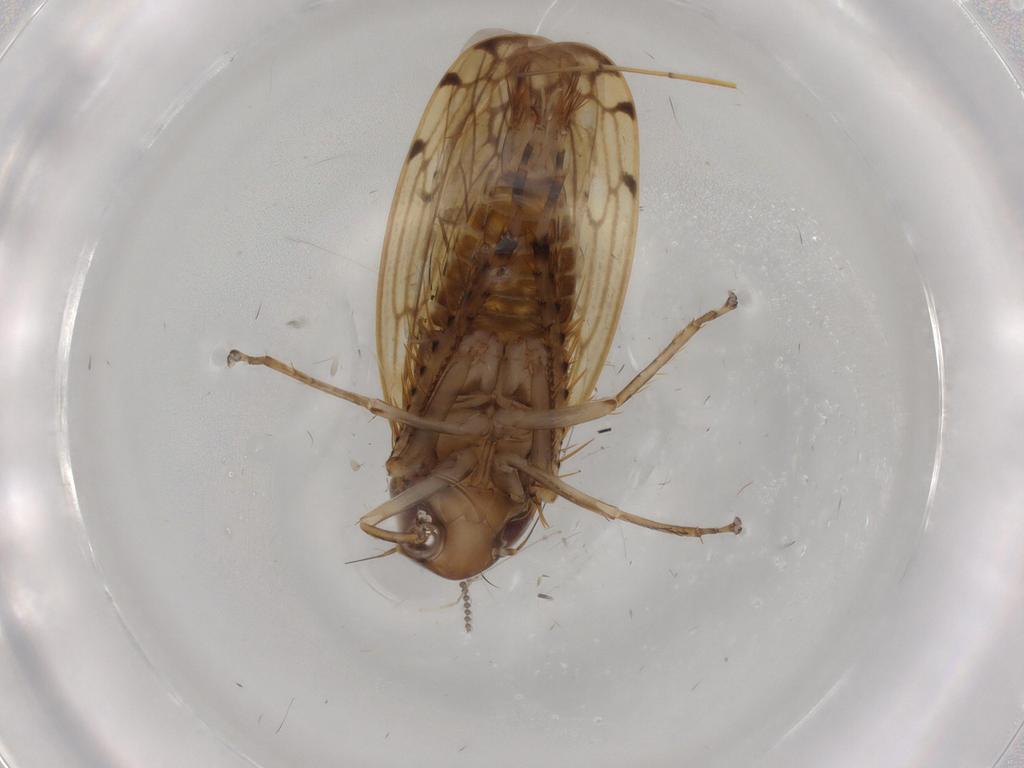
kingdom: Animalia
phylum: Arthropoda
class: Insecta
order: Hemiptera
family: Cicadellidae
